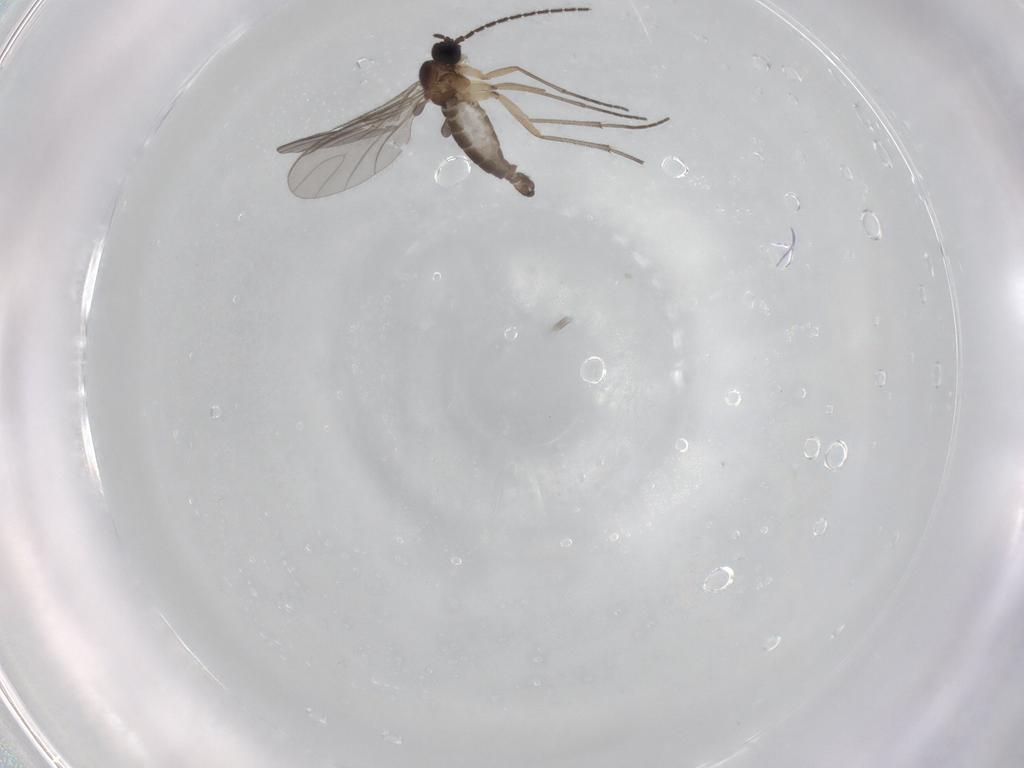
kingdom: Animalia
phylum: Arthropoda
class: Insecta
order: Diptera
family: Sciaridae
